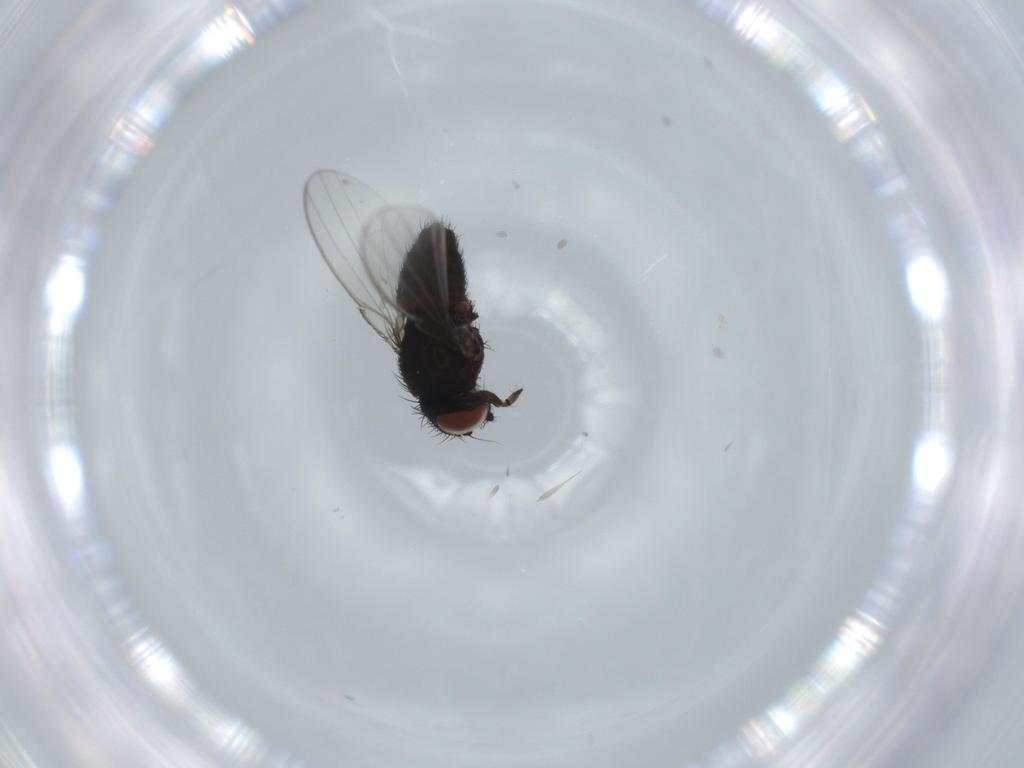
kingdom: Animalia
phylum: Arthropoda
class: Insecta
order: Diptera
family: Milichiidae
